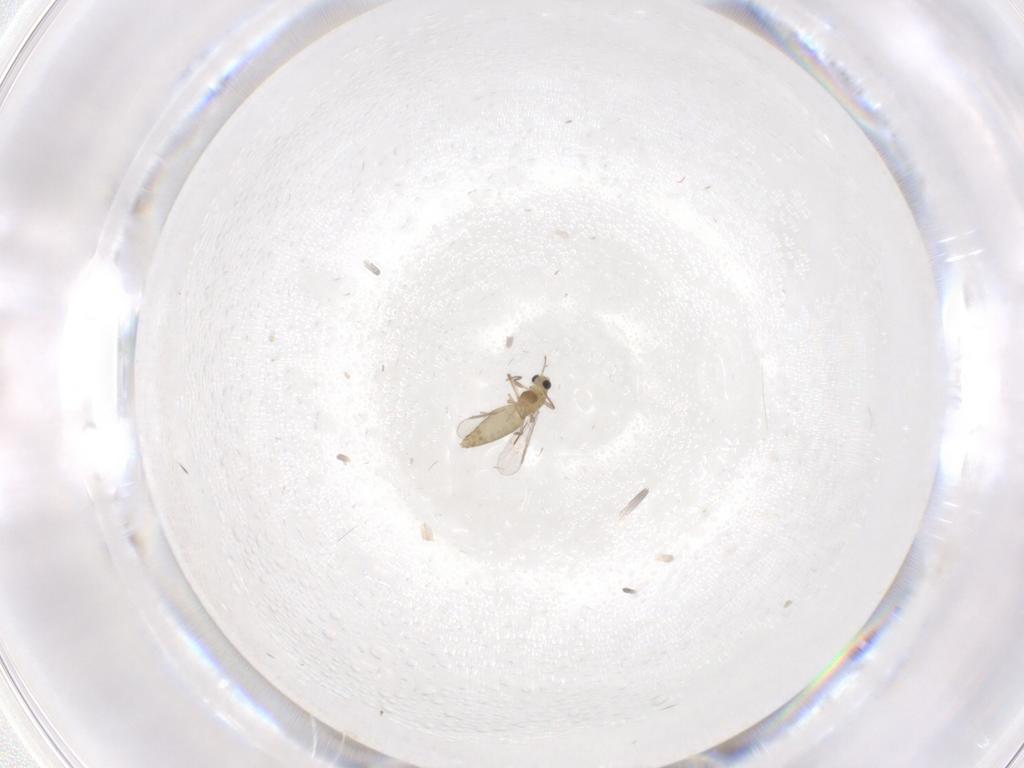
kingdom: Animalia
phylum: Arthropoda
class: Insecta
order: Diptera
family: Chironomidae
